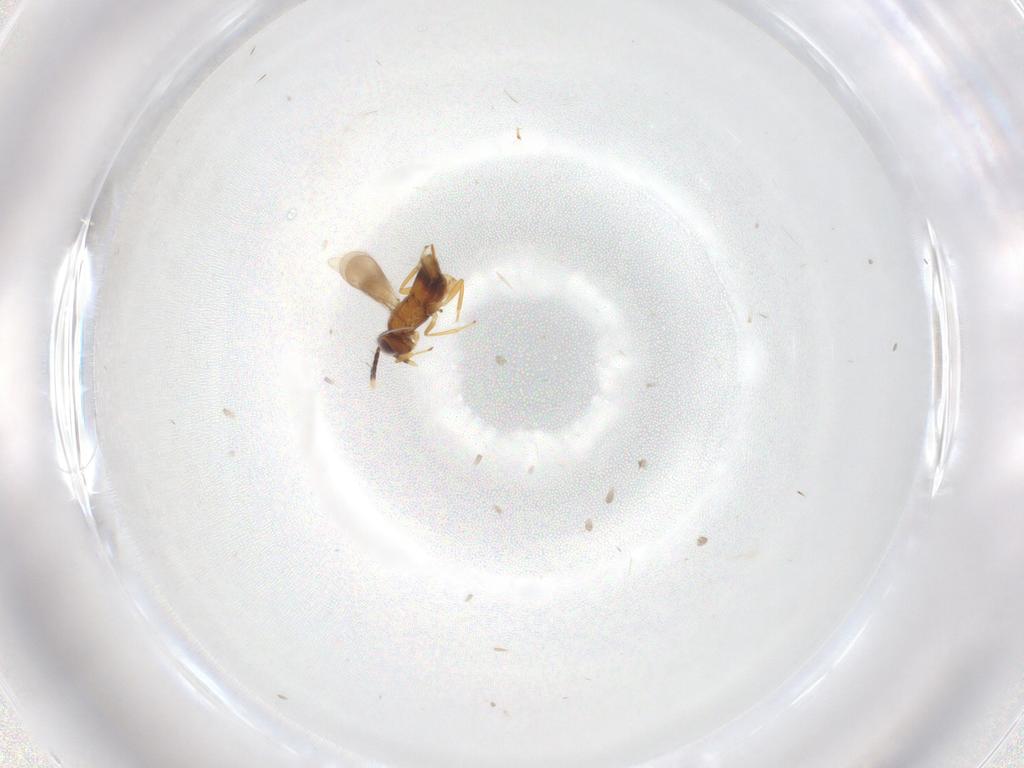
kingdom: Animalia
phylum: Arthropoda
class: Insecta
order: Hymenoptera
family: Aphelinidae
